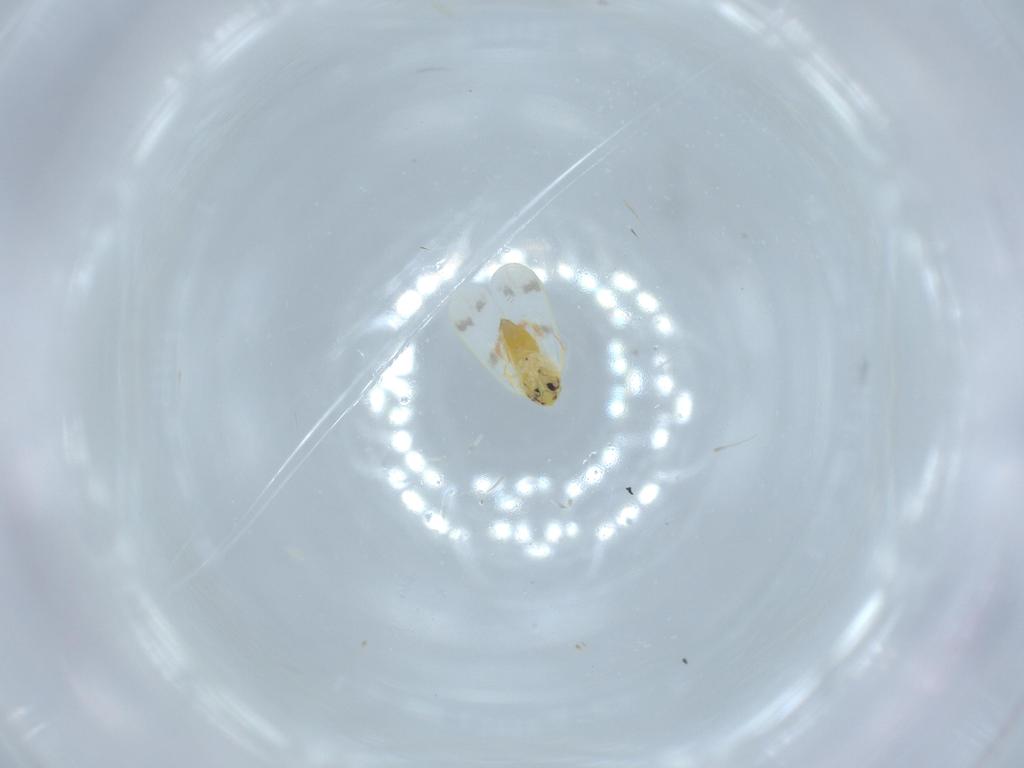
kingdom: Animalia
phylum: Arthropoda
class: Insecta
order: Hemiptera
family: Aleyrodidae
